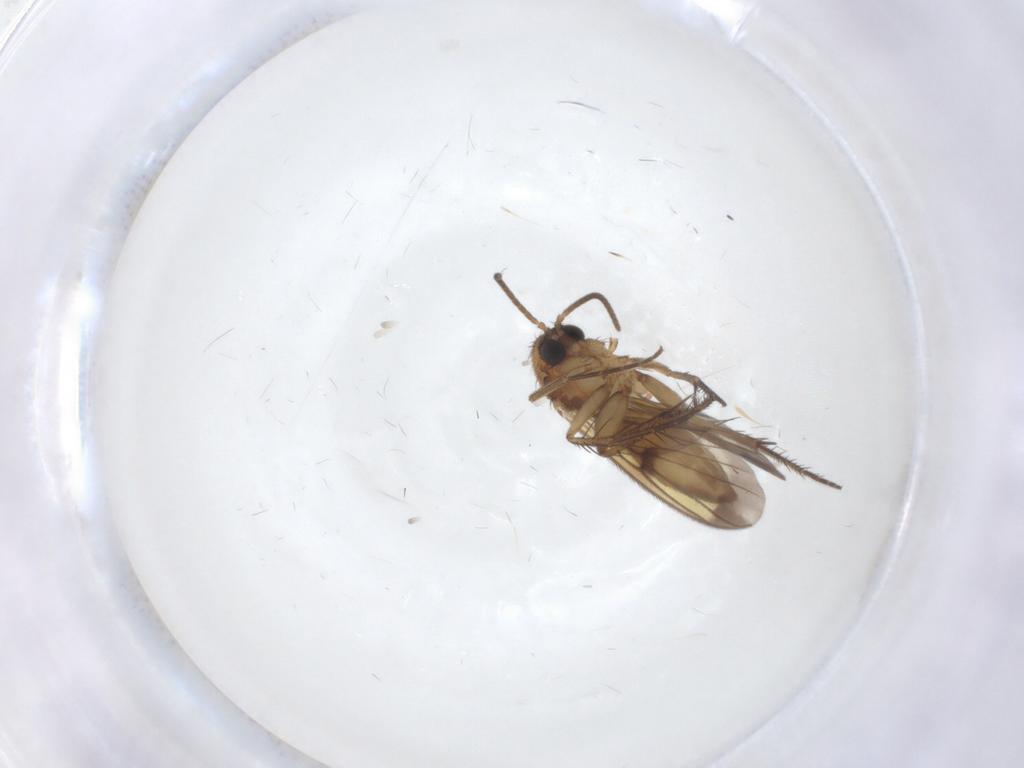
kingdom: Animalia
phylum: Arthropoda
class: Insecta
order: Diptera
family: Mycetophilidae
